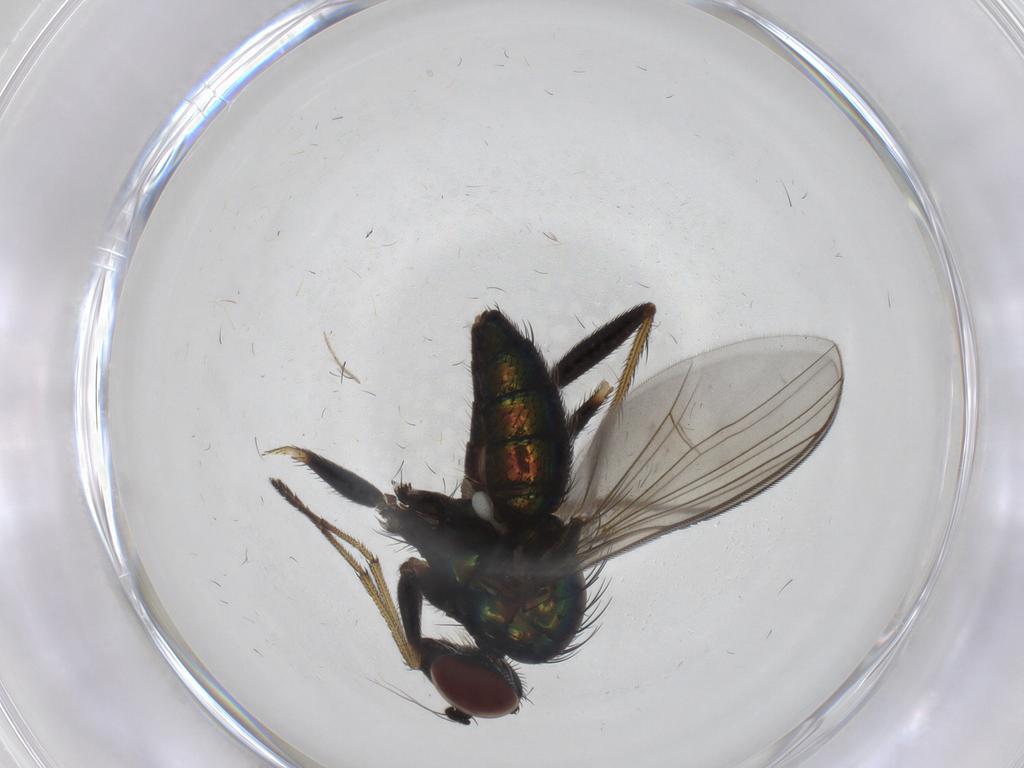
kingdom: Animalia
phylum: Arthropoda
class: Insecta
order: Diptera
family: Dolichopodidae
